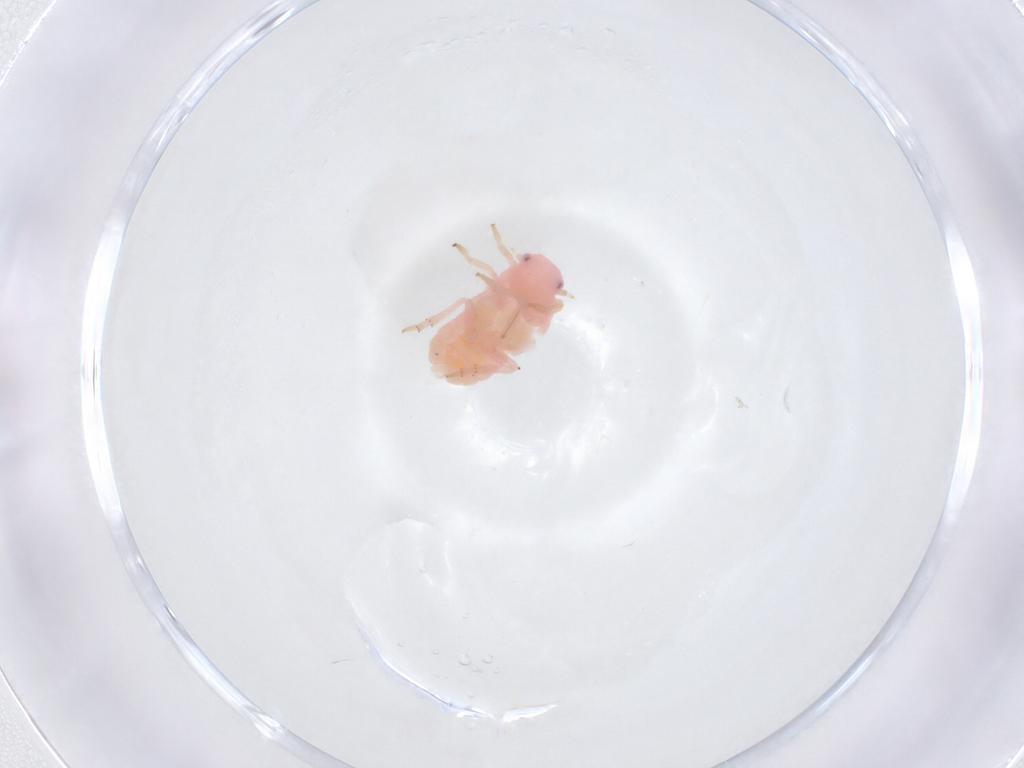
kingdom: Animalia
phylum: Arthropoda
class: Insecta
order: Hemiptera
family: Flatidae
